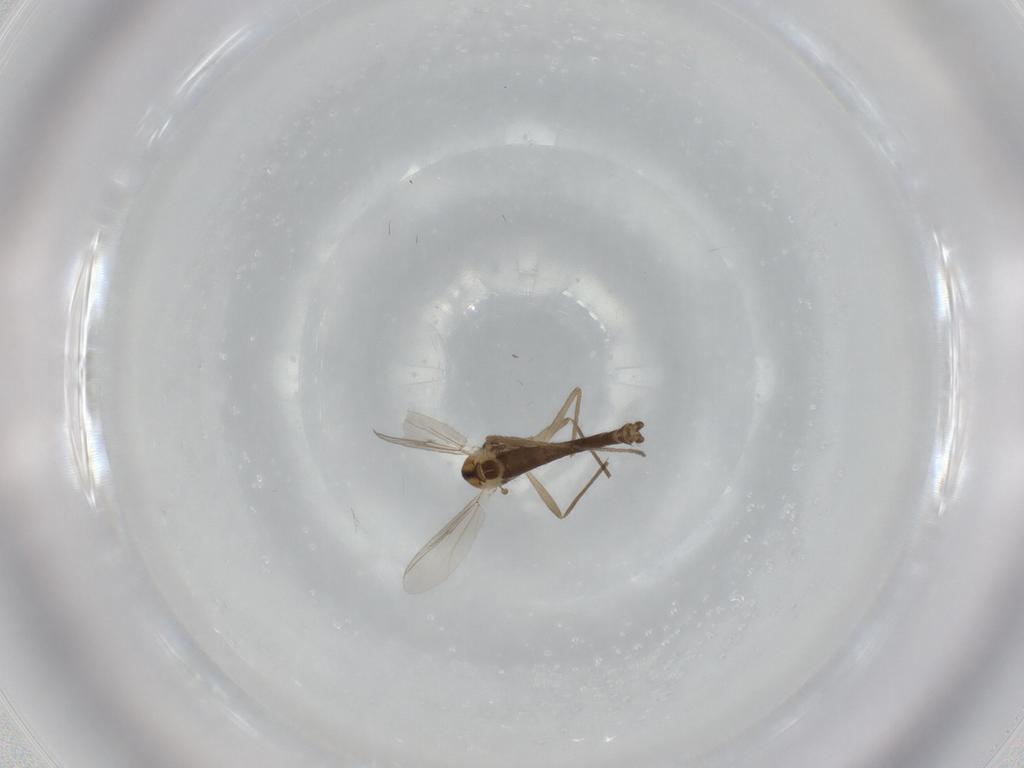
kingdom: Animalia
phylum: Arthropoda
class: Insecta
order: Diptera
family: Chironomidae
